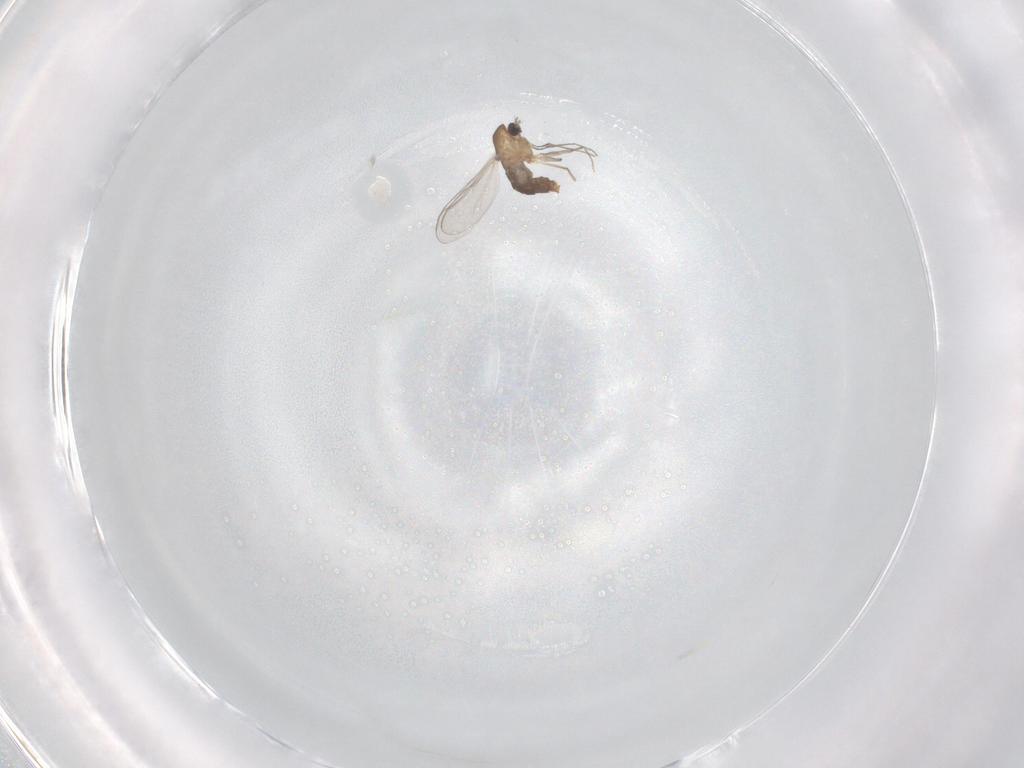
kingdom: Animalia
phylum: Arthropoda
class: Insecta
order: Diptera
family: Chironomidae
